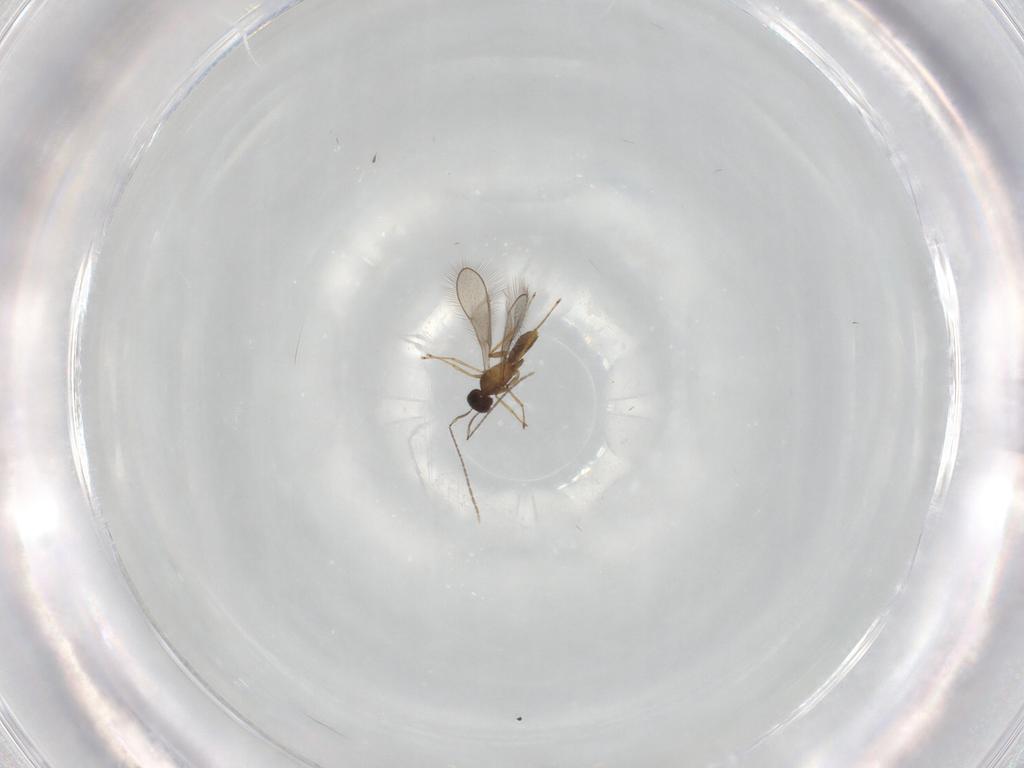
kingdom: Animalia
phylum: Arthropoda
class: Insecta
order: Hymenoptera
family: Mymaridae
